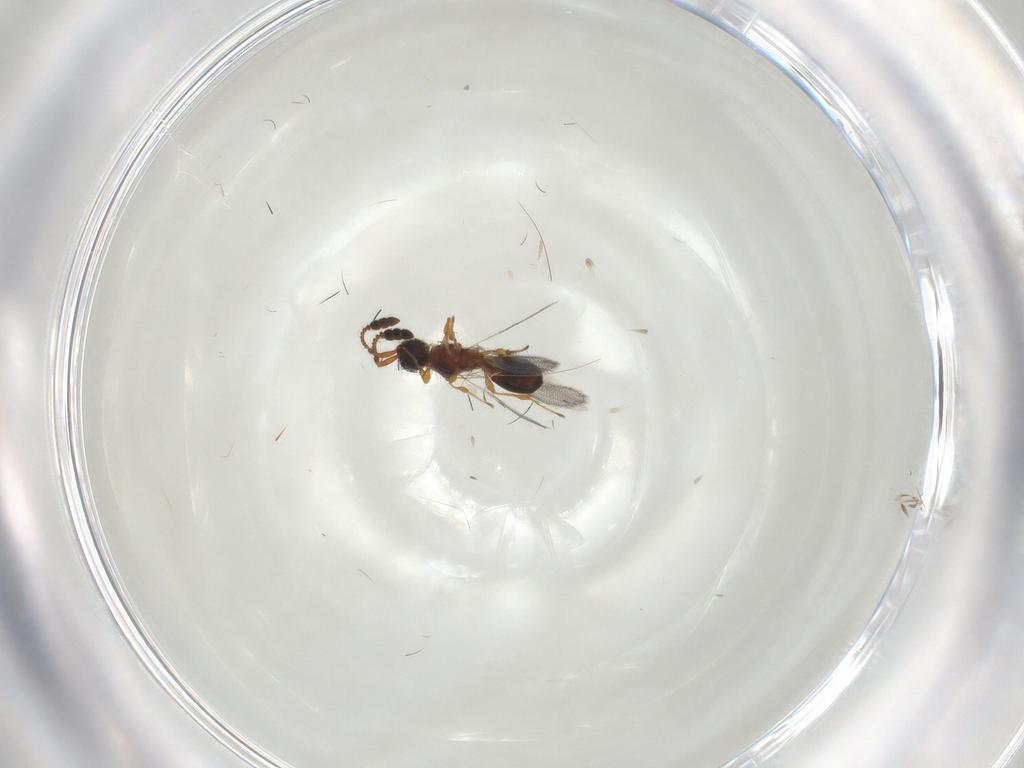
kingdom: Animalia
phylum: Arthropoda
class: Insecta
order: Hymenoptera
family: Diapriidae
